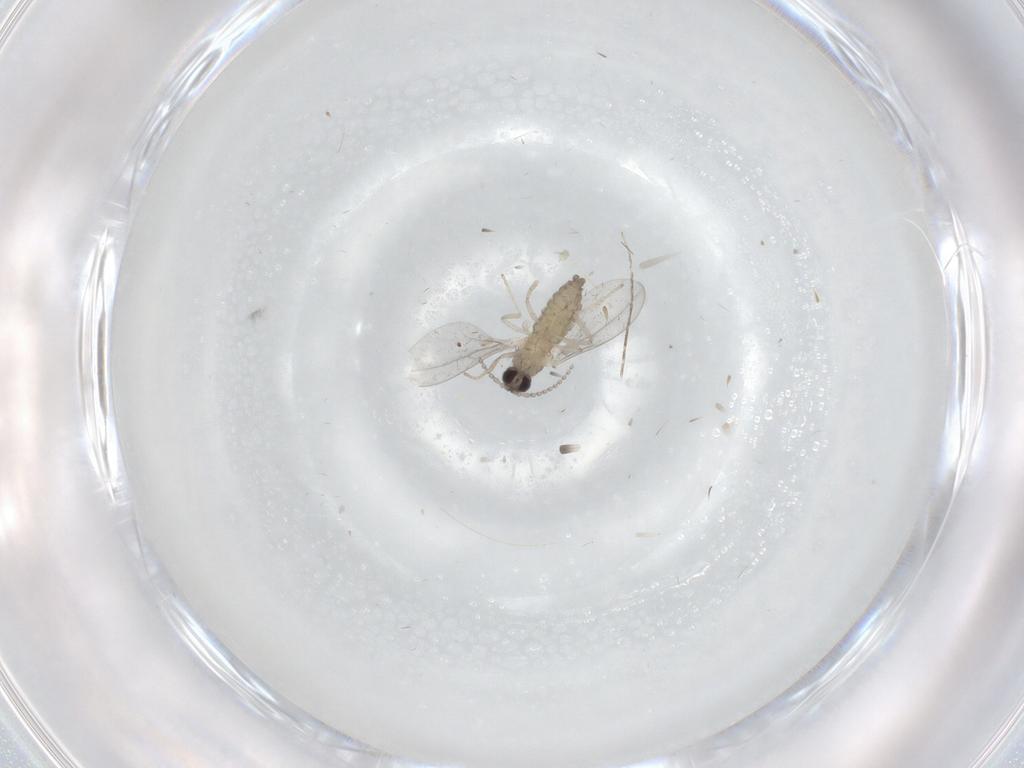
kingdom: Animalia
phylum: Arthropoda
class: Insecta
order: Diptera
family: Cecidomyiidae
